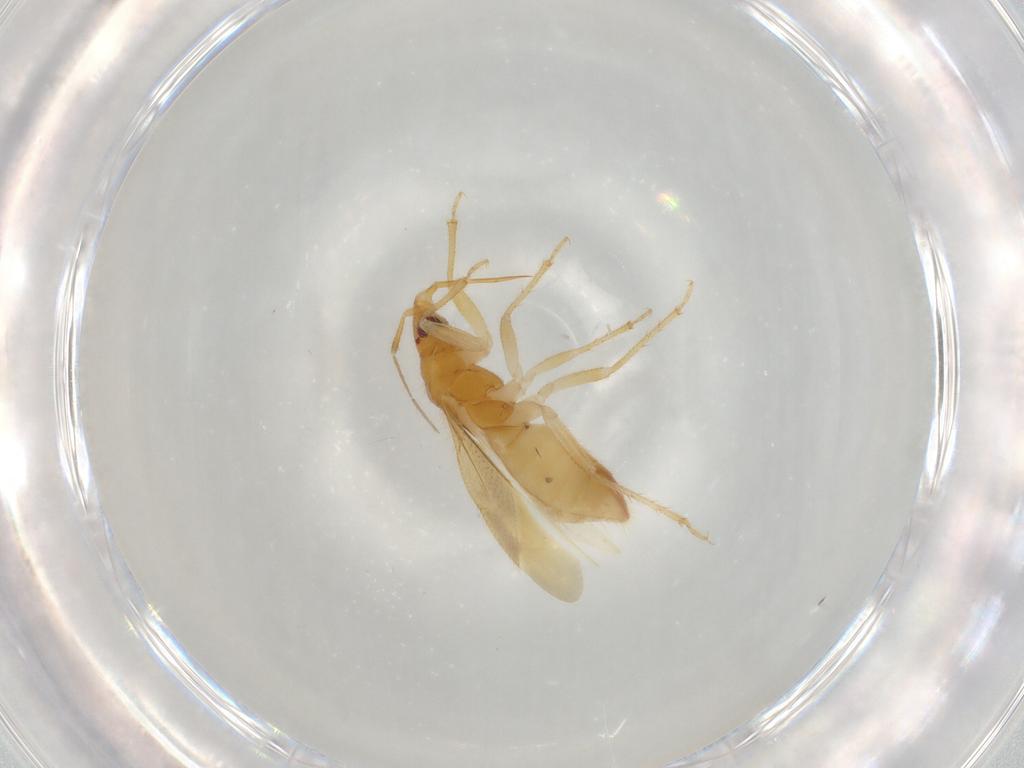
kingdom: Animalia
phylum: Arthropoda
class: Insecta
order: Hemiptera
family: Lasiochilidae
